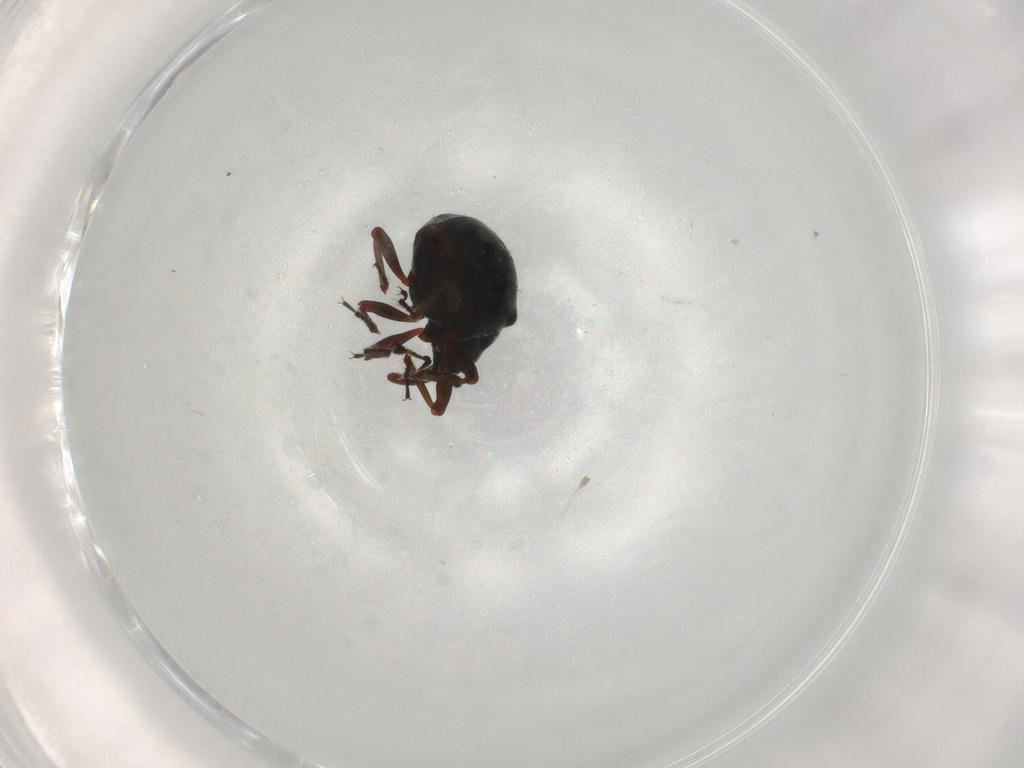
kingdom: Animalia
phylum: Arthropoda
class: Insecta
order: Coleoptera
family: Curculionidae
